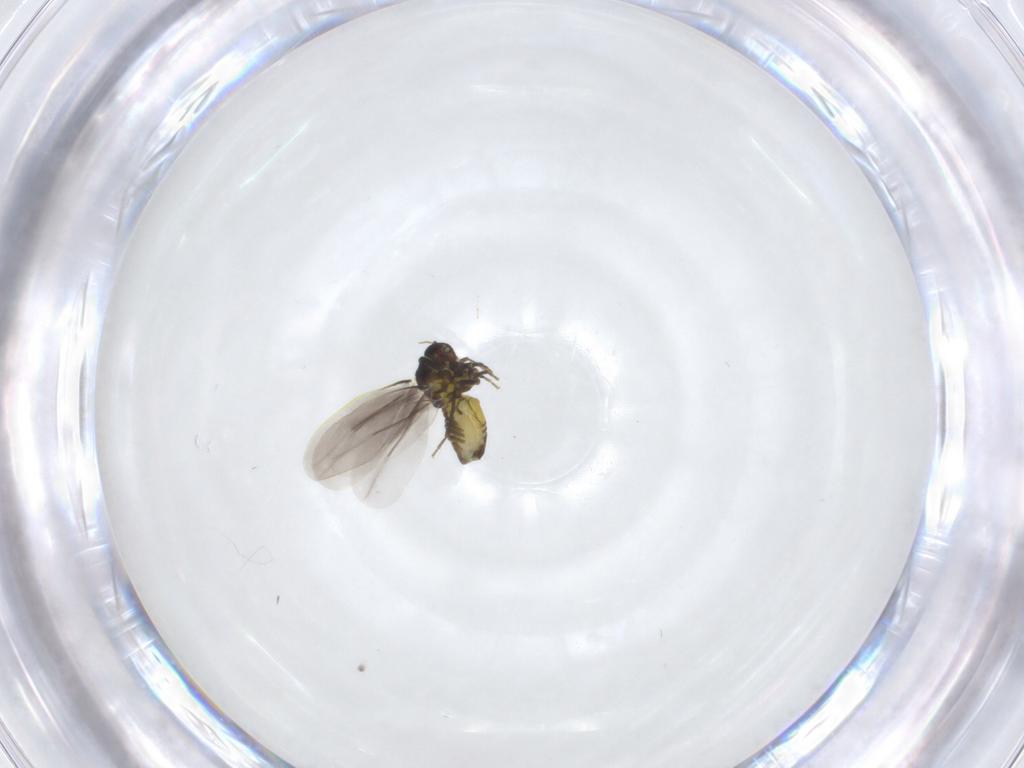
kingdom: Animalia
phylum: Arthropoda
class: Insecta
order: Hemiptera
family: Aleyrodidae
